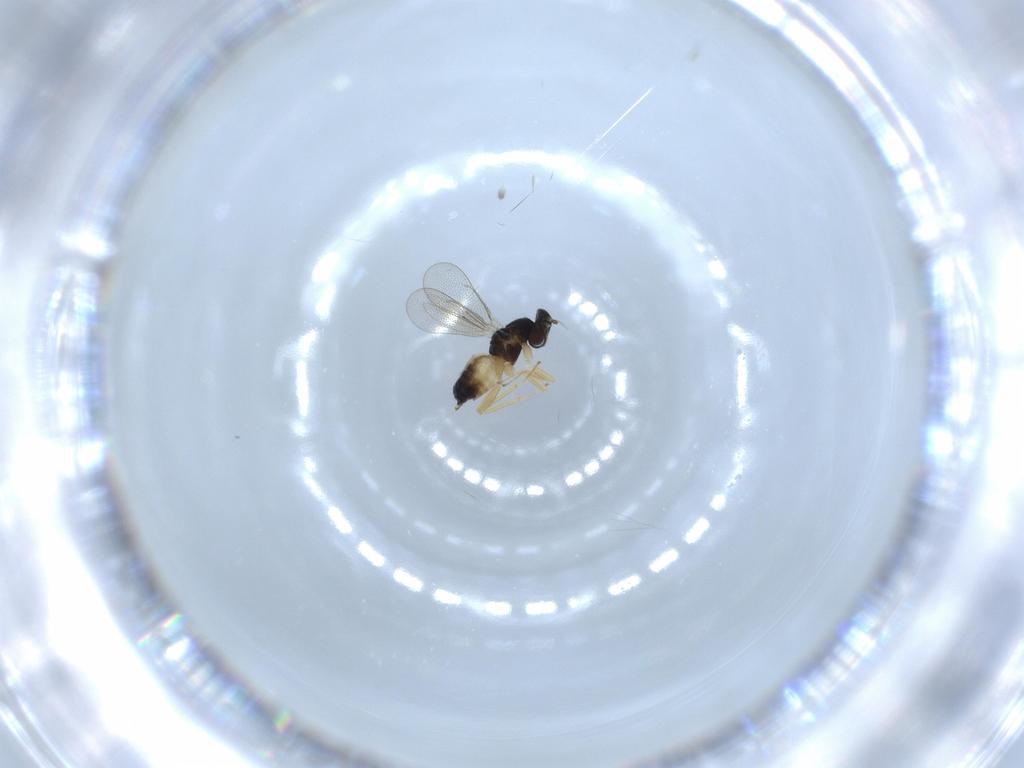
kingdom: Animalia
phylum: Arthropoda
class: Insecta
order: Hymenoptera
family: Eulophidae
